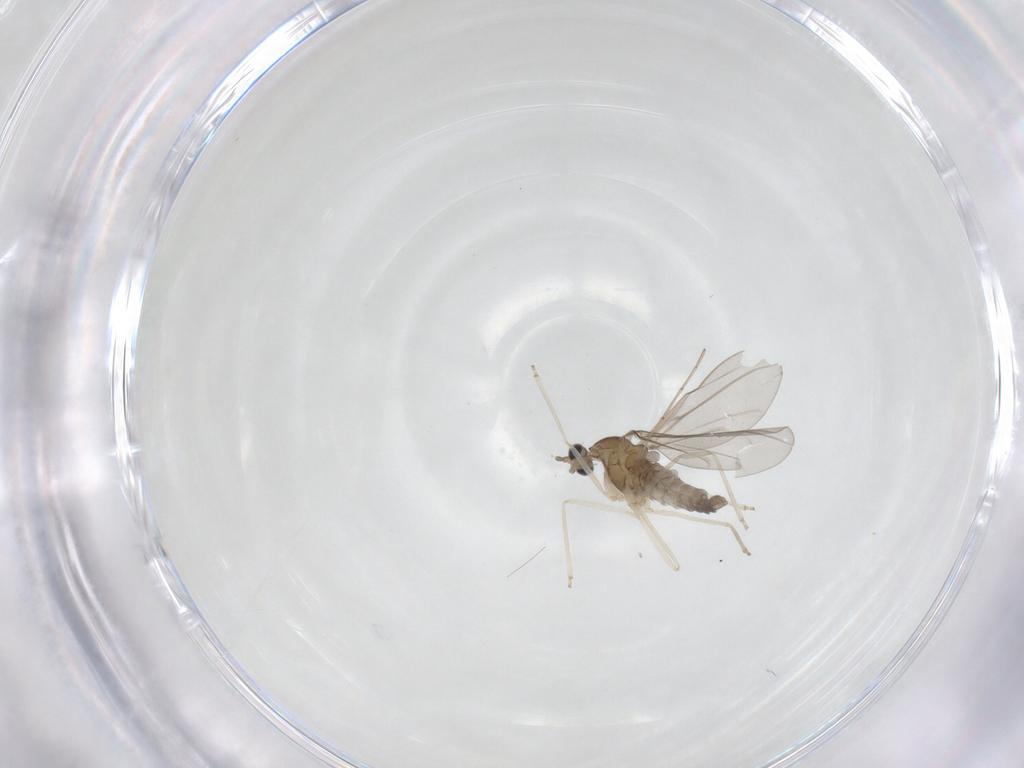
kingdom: Animalia
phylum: Arthropoda
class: Insecta
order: Diptera
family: Cecidomyiidae
